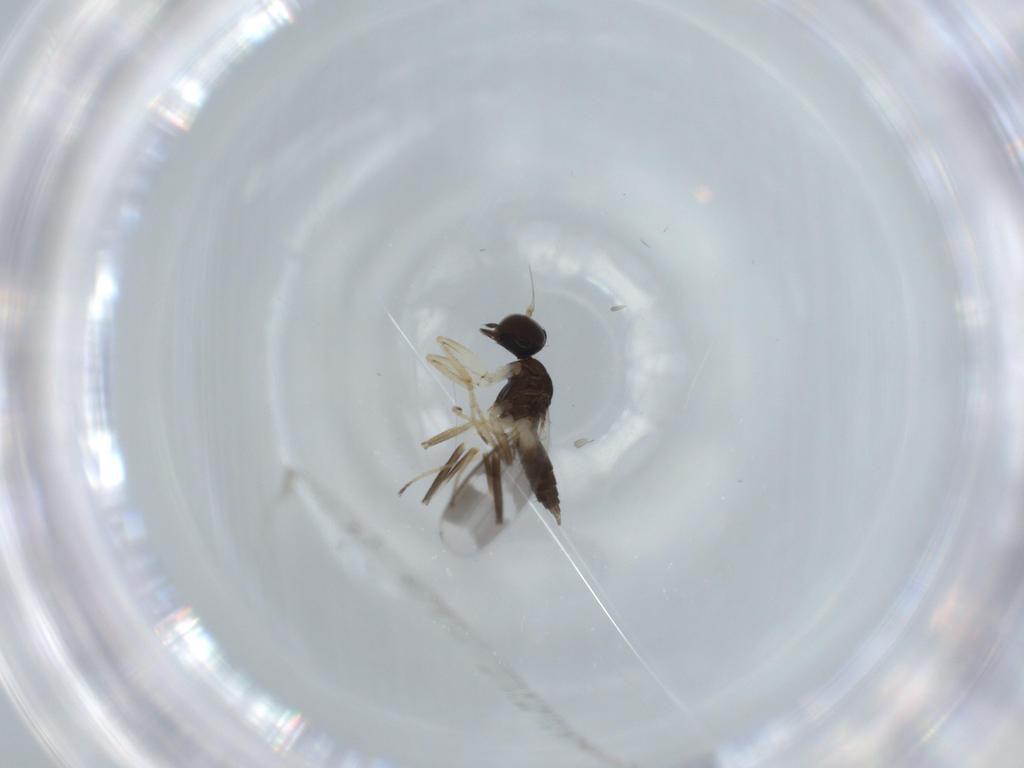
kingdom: Animalia
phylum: Arthropoda
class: Insecta
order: Diptera
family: Hybotidae
